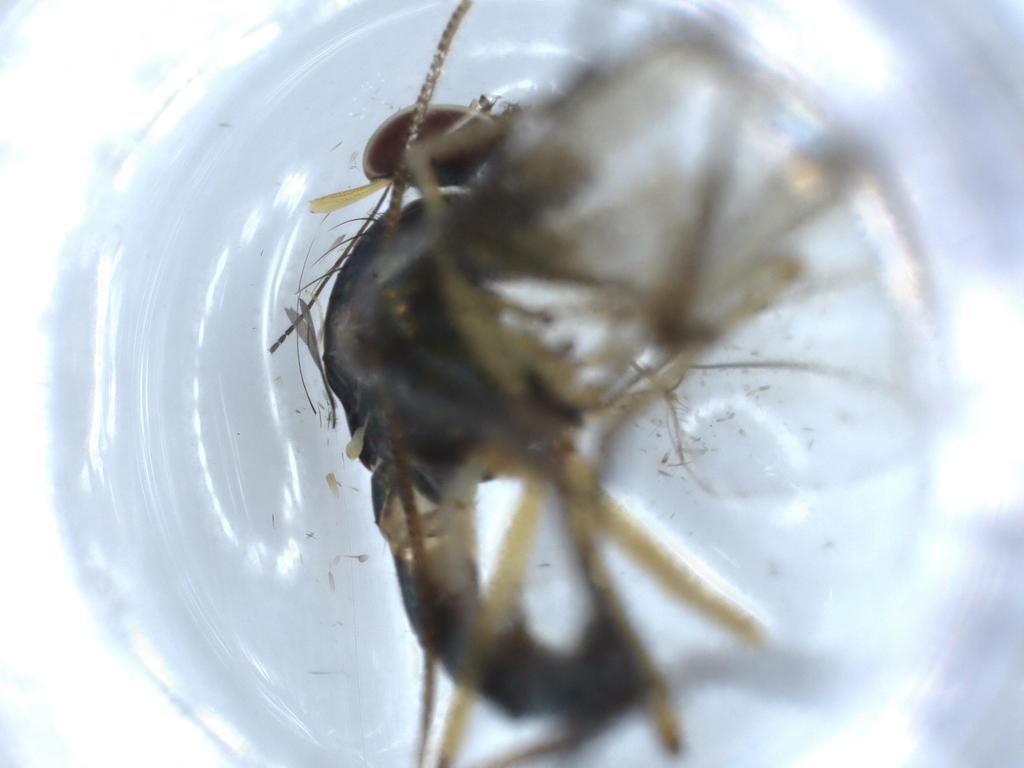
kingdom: Animalia
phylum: Arthropoda
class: Insecta
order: Diptera
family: Dolichopodidae
